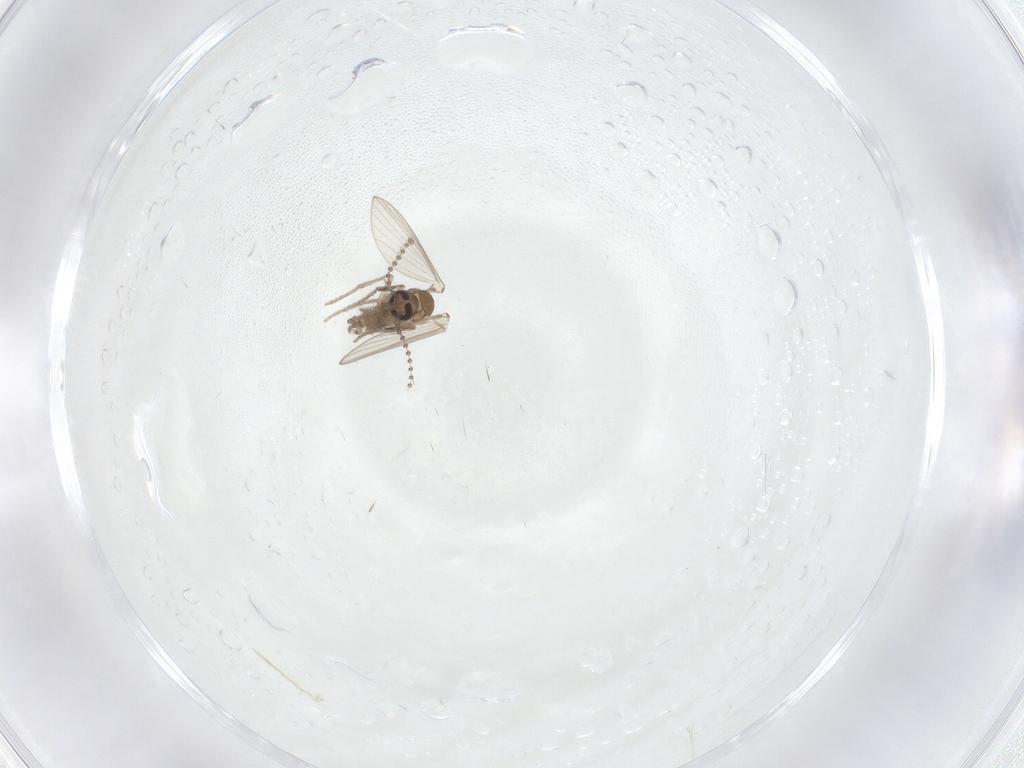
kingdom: Animalia
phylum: Arthropoda
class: Insecta
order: Diptera
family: Psychodidae
